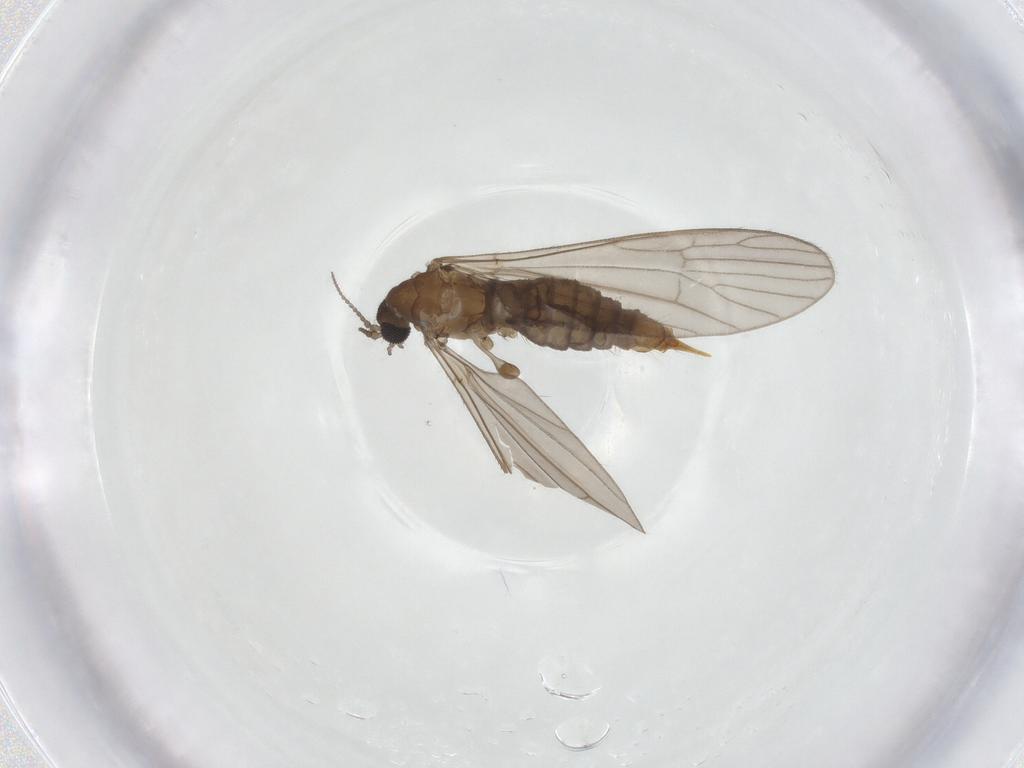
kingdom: Animalia
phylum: Arthropoda
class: Insecta
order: Diptera
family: Limoniidae
